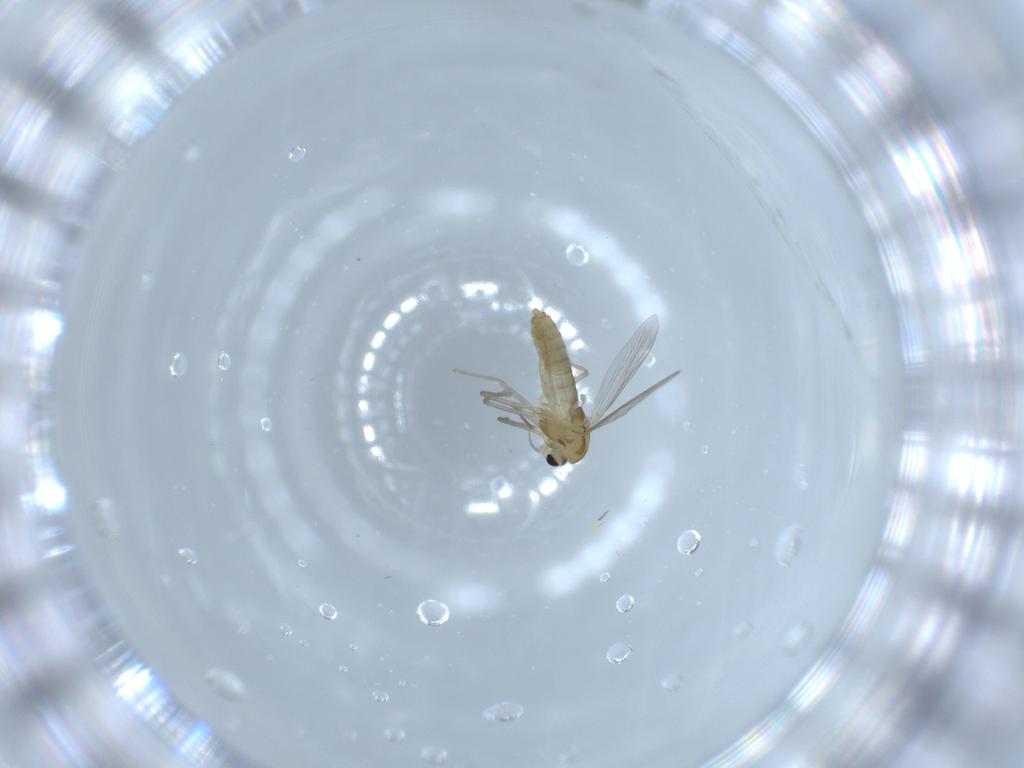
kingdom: Animalia
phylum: Arthropoda
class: Insecta
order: Diptera
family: Chironomidae
